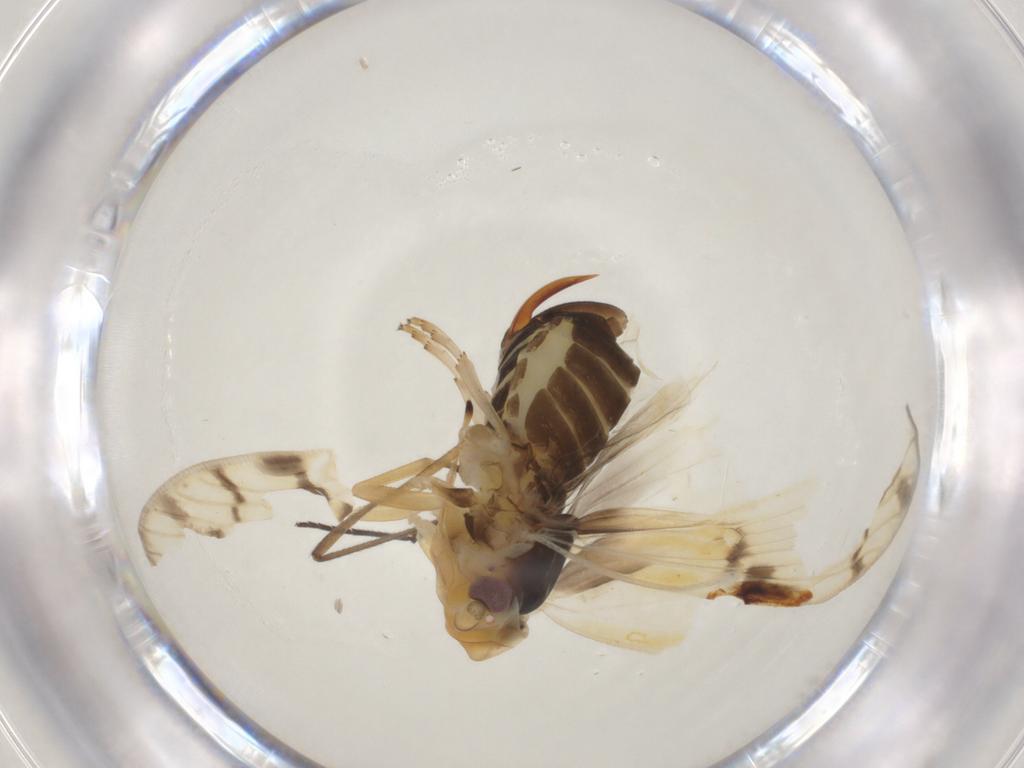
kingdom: Animalia
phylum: Arthropoda
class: Insecta
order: Hemiptera
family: Cixiidae
